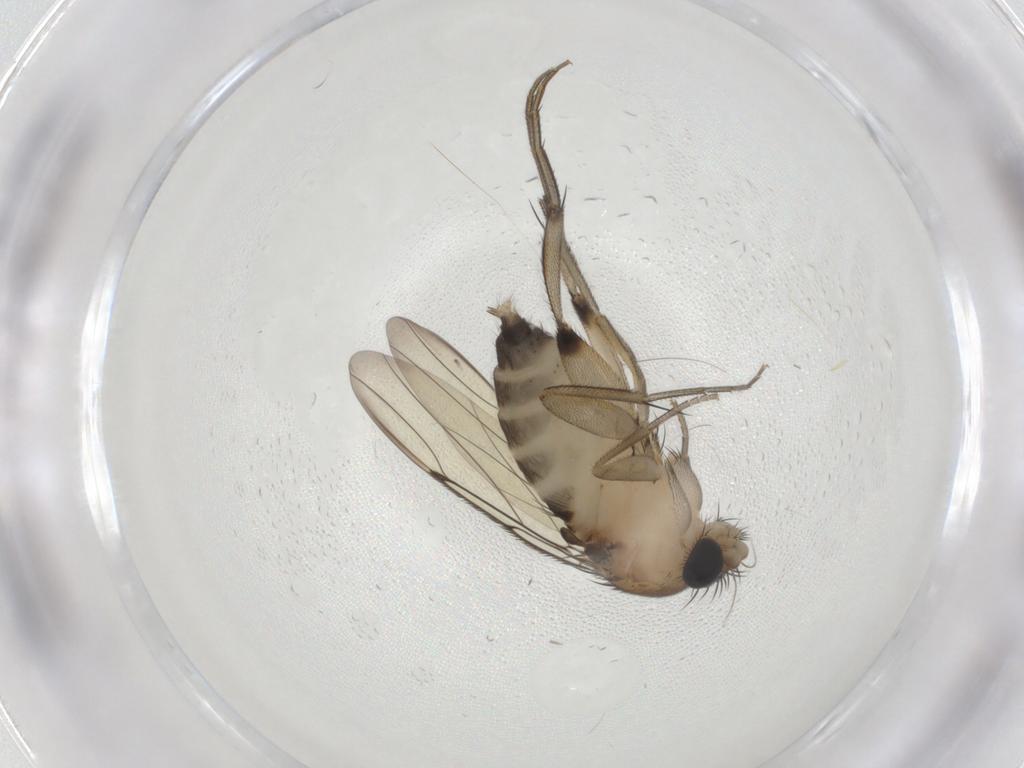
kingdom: Animalia
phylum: Arthropoda
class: Insecta
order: Diptera
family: Phoridae
